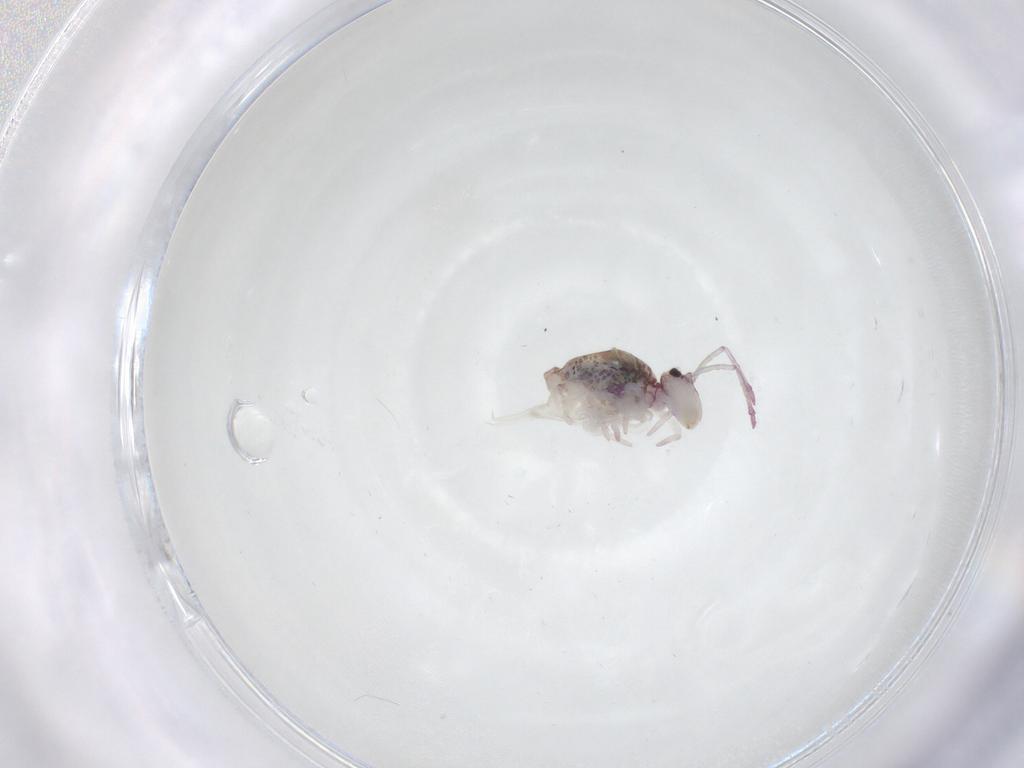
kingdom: Animalia
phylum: Arthropoda
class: Collembola
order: Symphypleona
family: Dicyrtomidae
